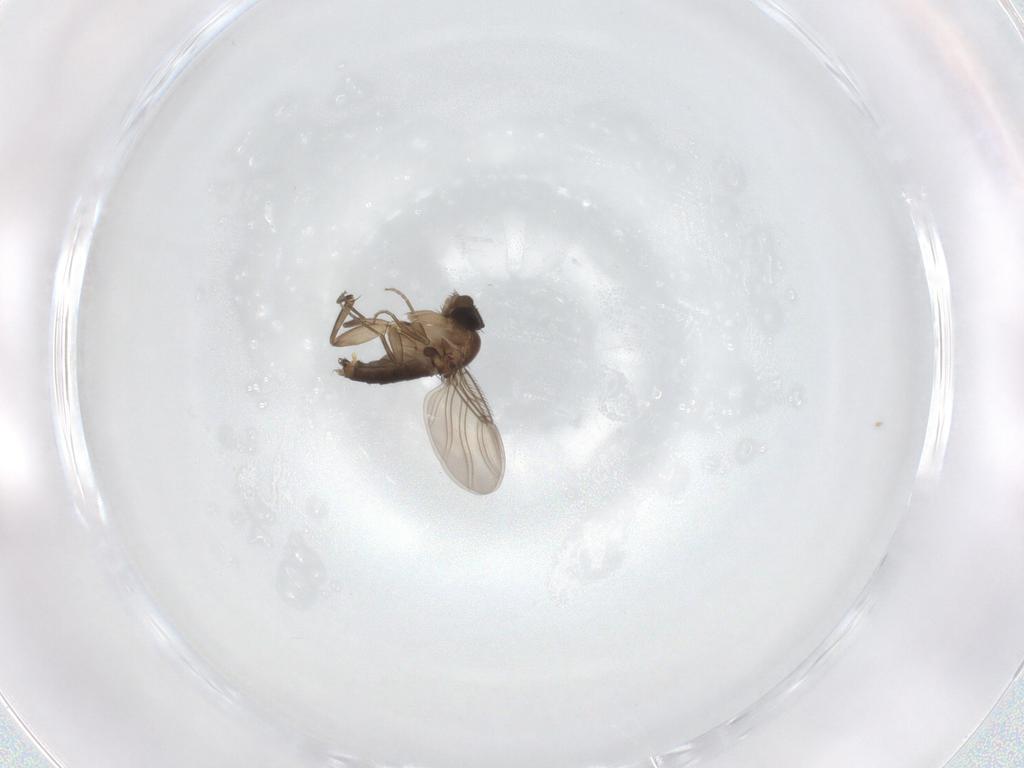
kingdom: Animalia
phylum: Arthropoda
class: Insecta
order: Diptera
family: Phoridae
